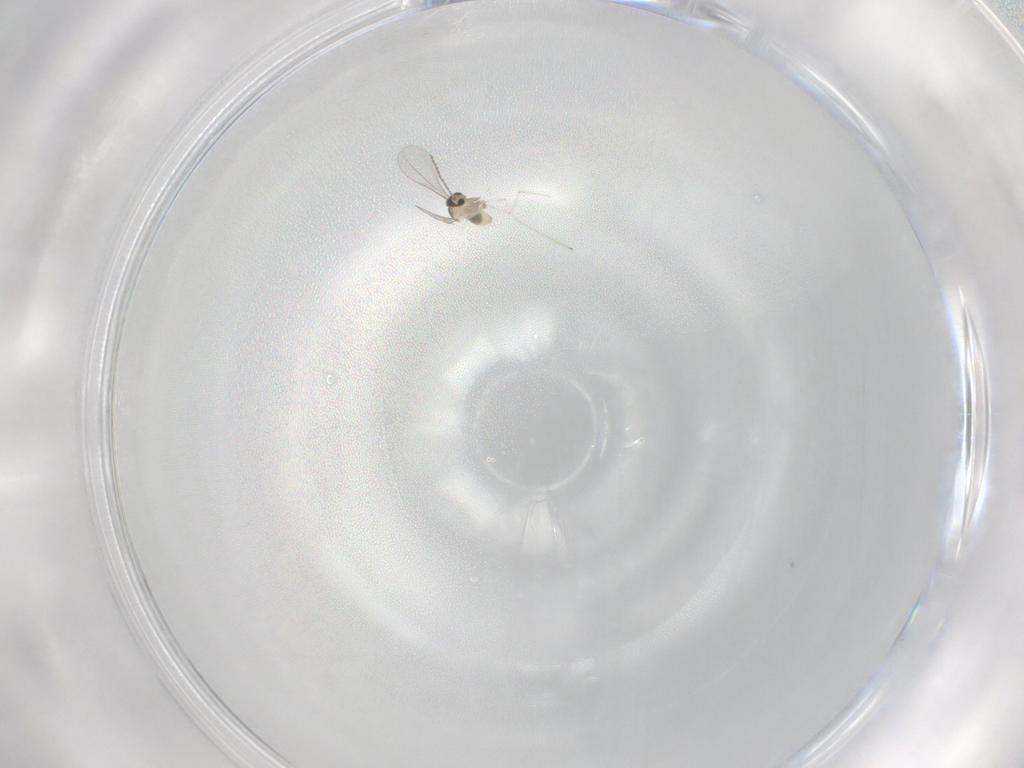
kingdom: Animalia
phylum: Arthropoda
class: Insecta
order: Diptera
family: Cecidomyiidae
